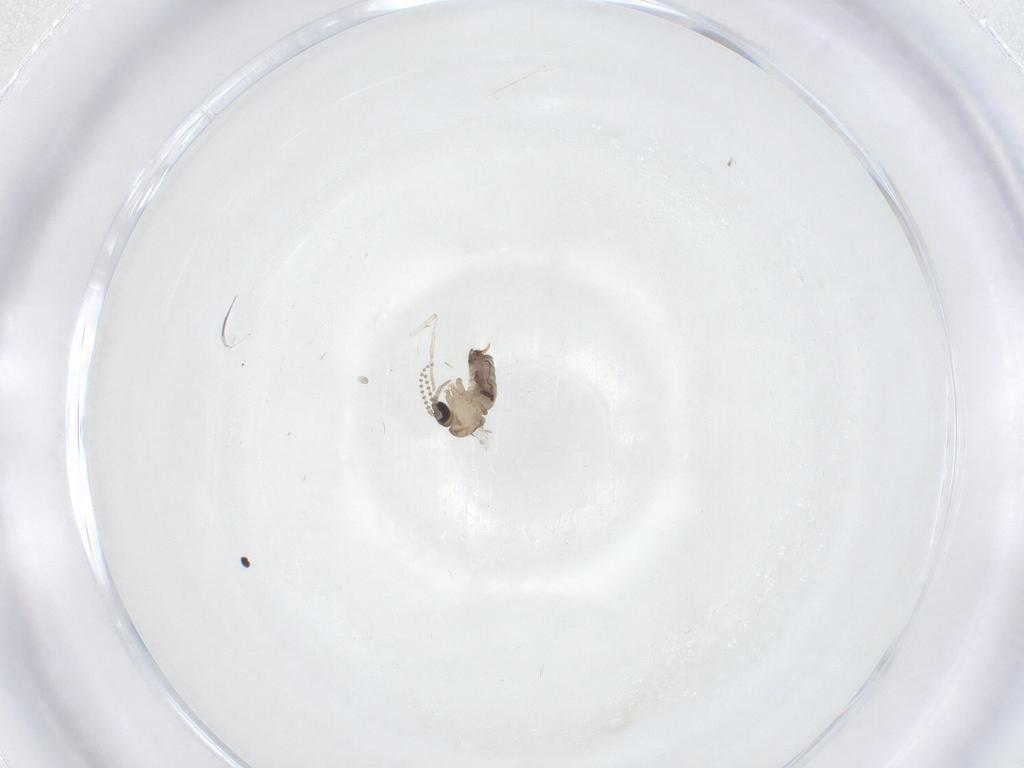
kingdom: Animalia
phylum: Arthropoda
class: Insecta
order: Diptera
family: Psychodidae
